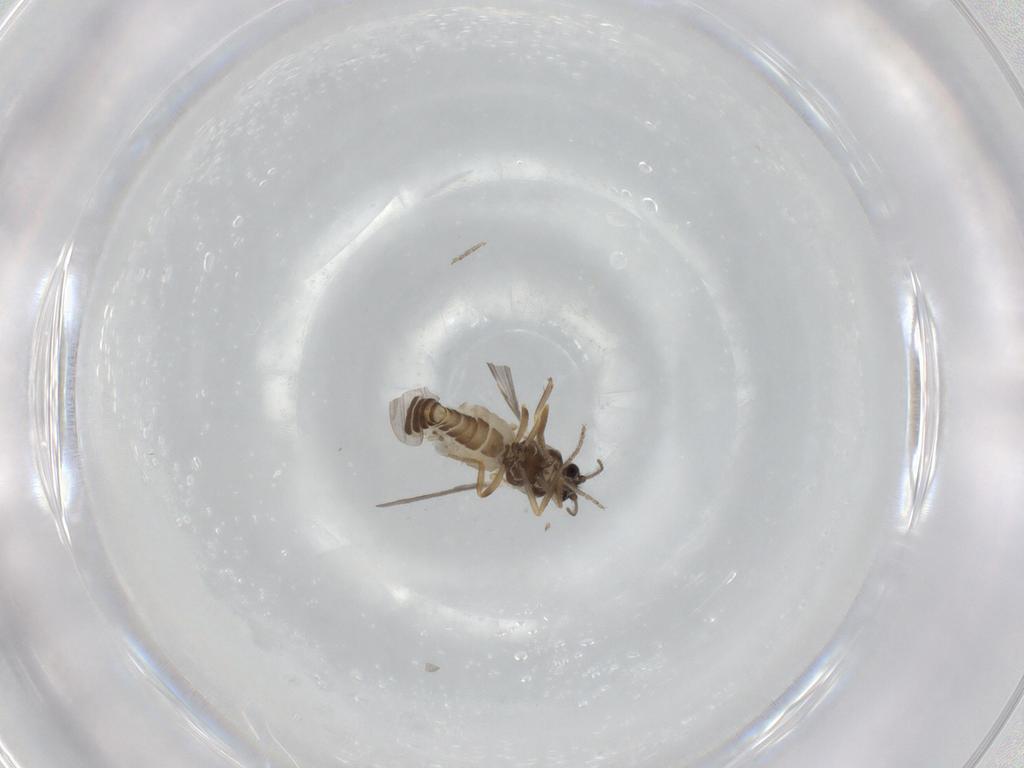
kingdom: Animalia
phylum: Arthropoda
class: Insecta
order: Diptera
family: Ceratopogonidae
